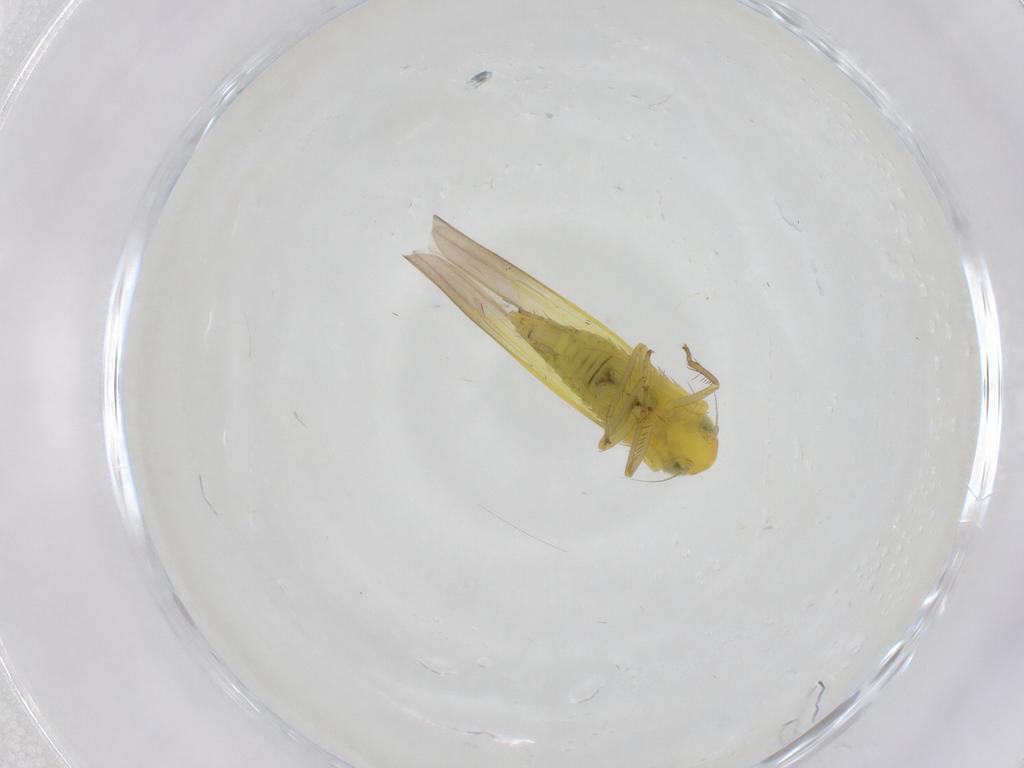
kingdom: Animalia
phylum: Arthropoda
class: Insecta
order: Hemiptera
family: Cicadellidae
